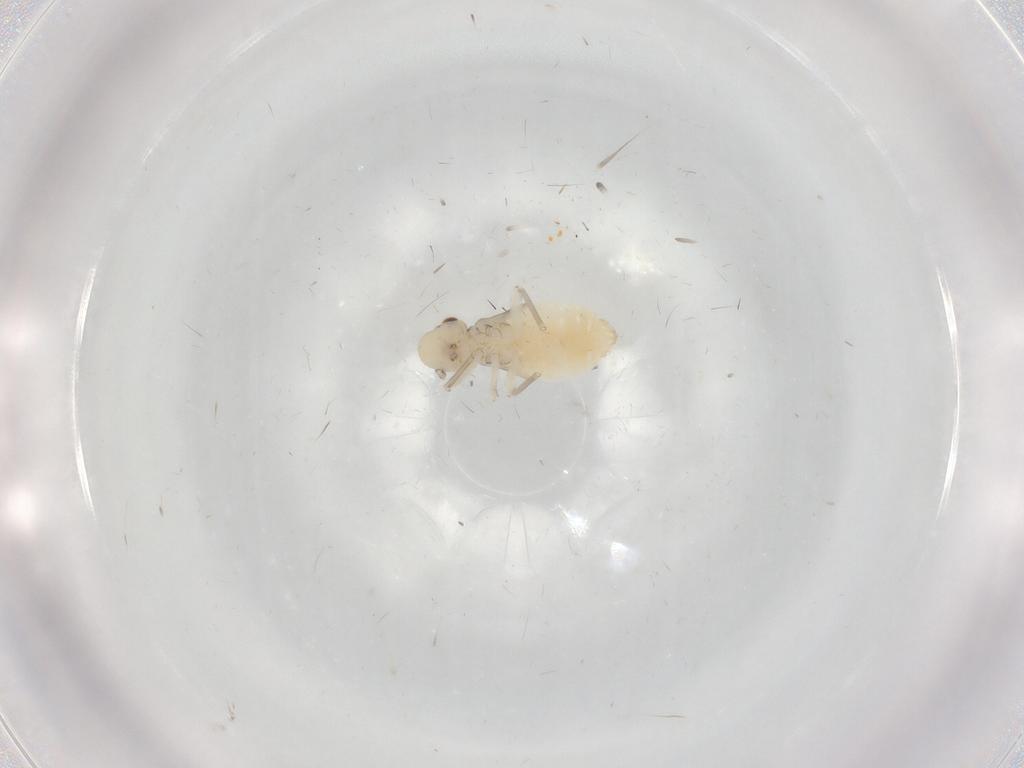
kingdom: Animalia
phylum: Arthropoda
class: Insecta
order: Psocodea
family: Caeciliusidae
